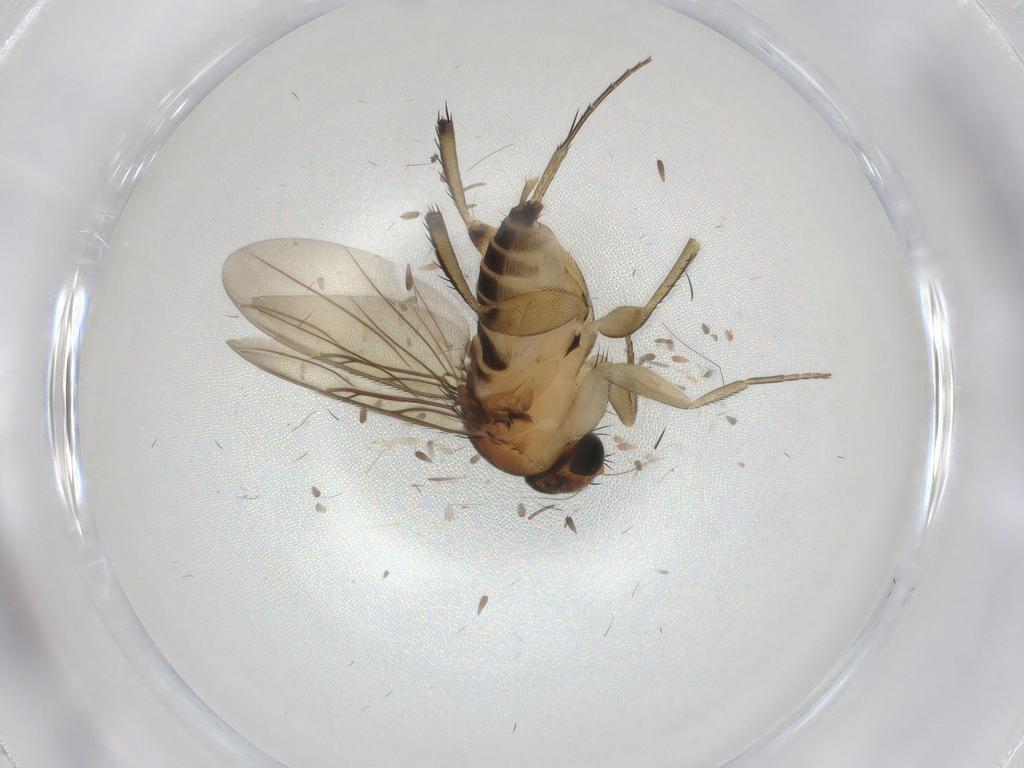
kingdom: Animalia
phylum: Arthropoda
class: Insecta
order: Diptera
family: Phoridae
